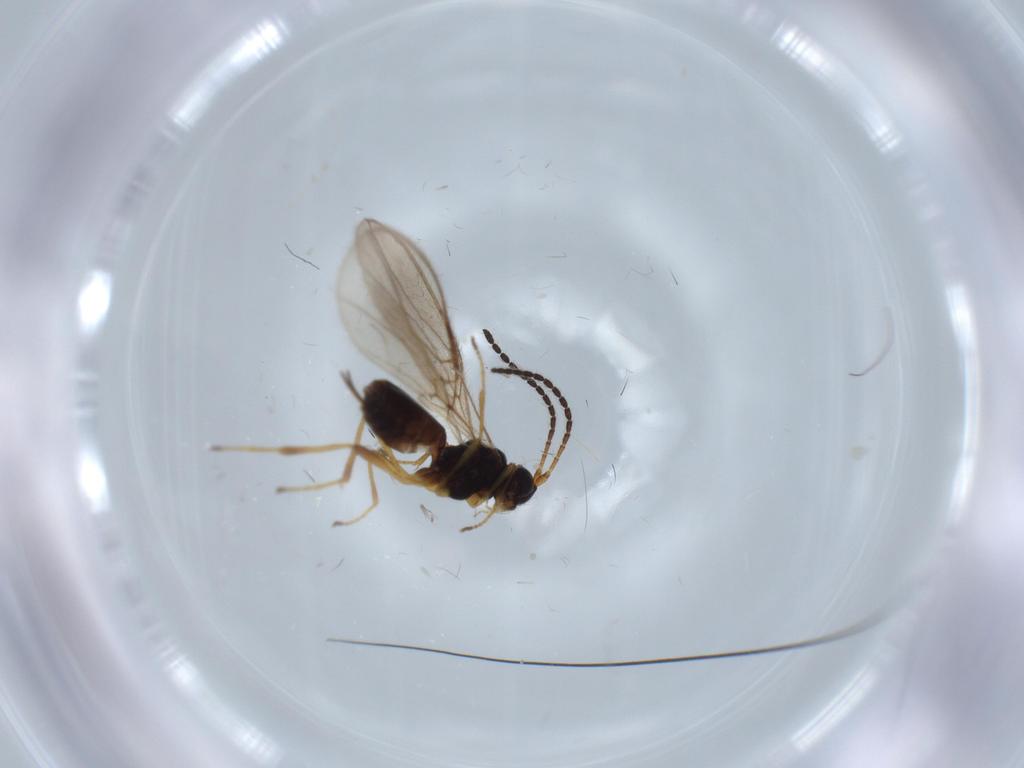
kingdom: Animalia
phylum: Arthropoda
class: Insecta
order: Hymenoptera
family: Braconidae
